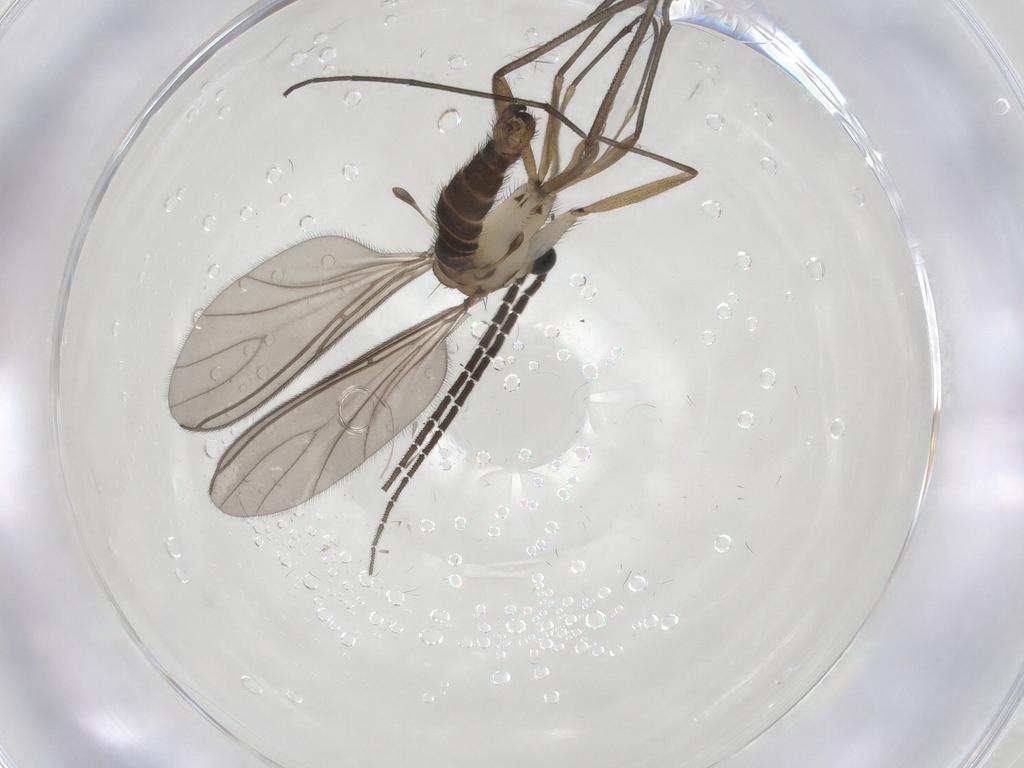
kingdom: Animalia
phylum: Arthropoda
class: Insecta
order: Diptera
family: Sciaridae
